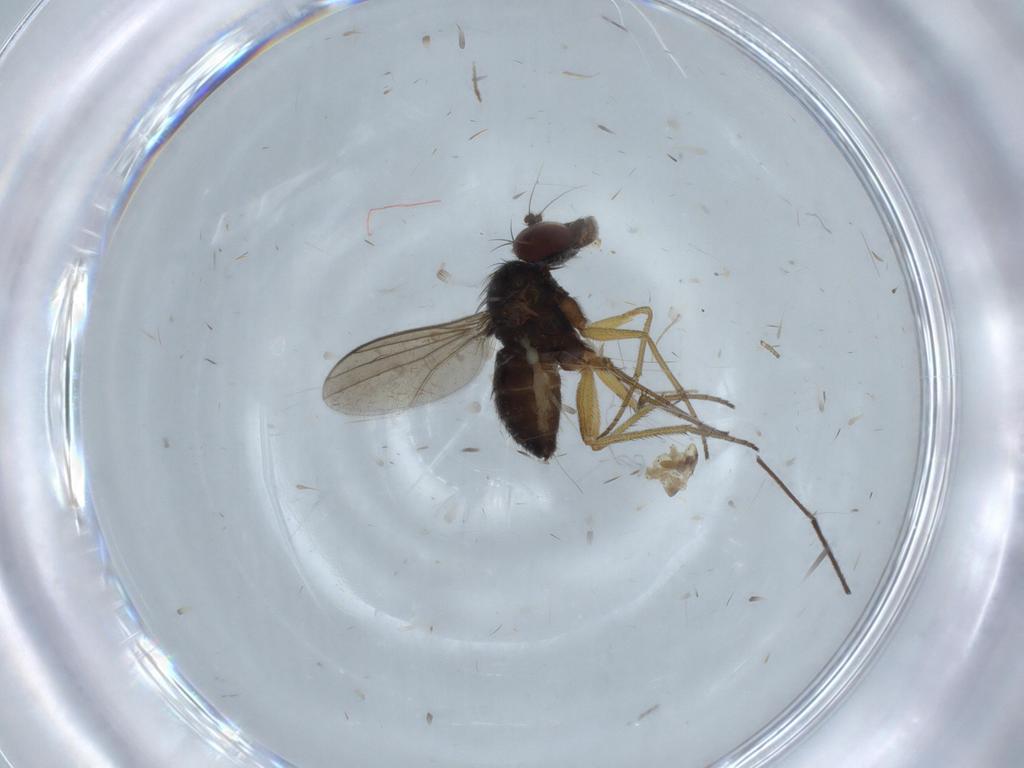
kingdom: Animalia
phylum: Arthropoda
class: Insecta
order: Diptera
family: Dolichopodidae
